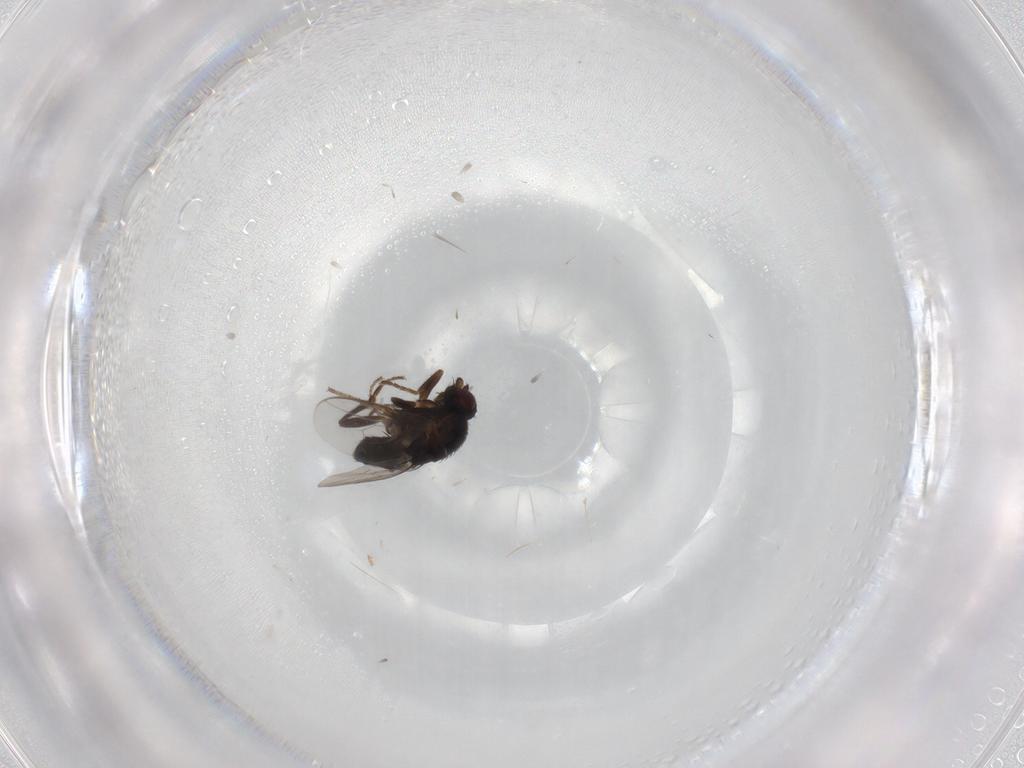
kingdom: Animalia
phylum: Arthropoda
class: Insecta
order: Diptera
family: Sphaeroceridae
